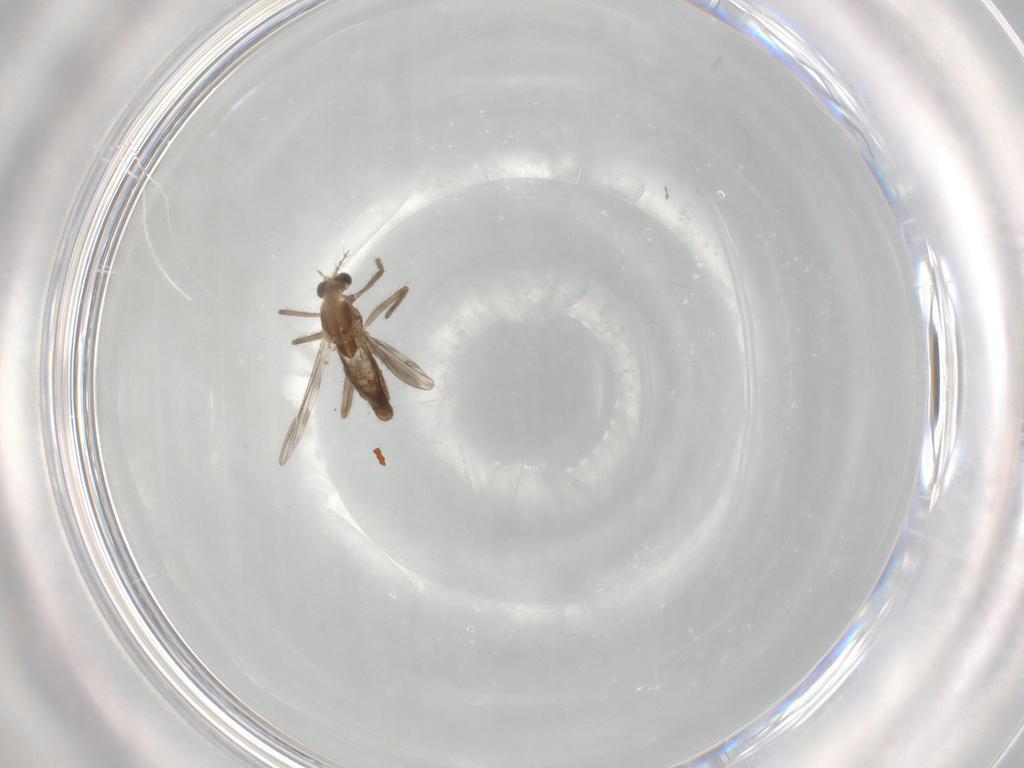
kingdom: Animalia
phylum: Arthropoda
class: Insecta
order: Diptera
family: Chironomidae
